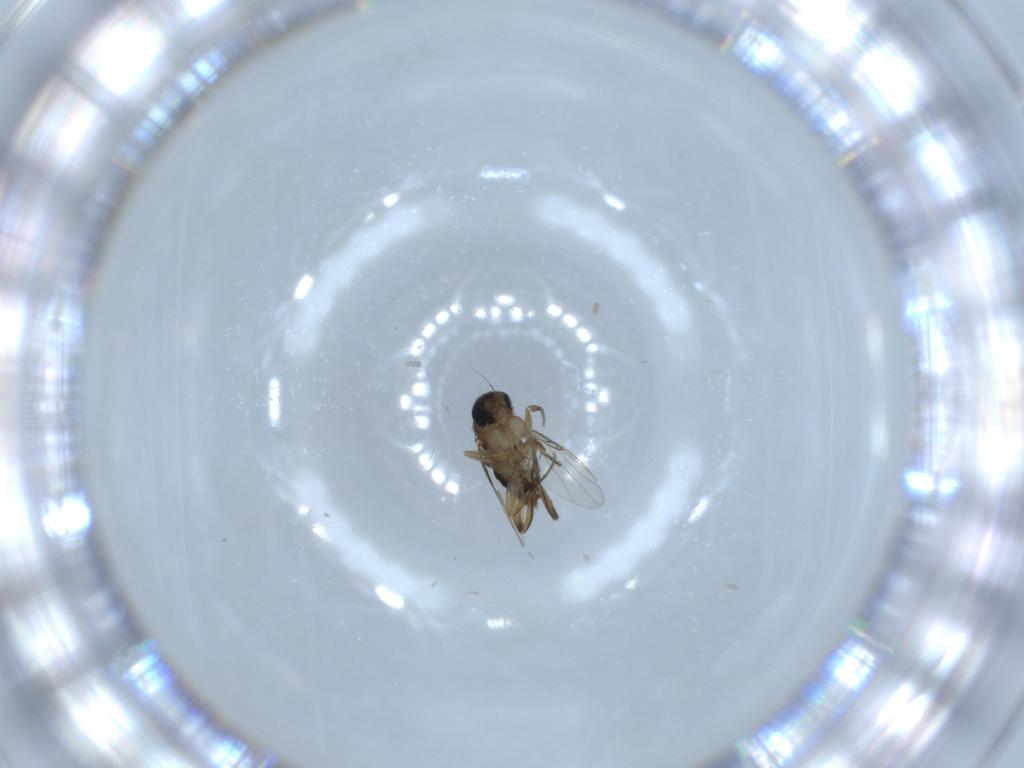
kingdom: Animalia
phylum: Arthropoda
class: Insecta
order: Diptera
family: Phoridae
